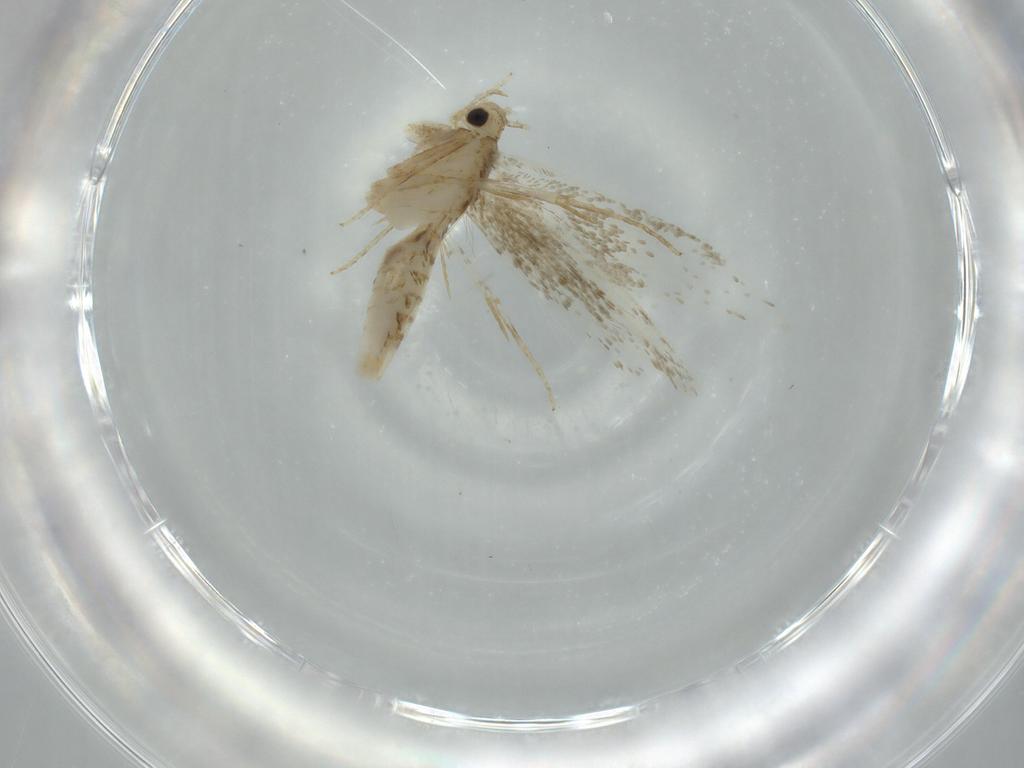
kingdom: Animalia
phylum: Arthropoda
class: Insecta
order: Lepidoptera
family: Tineidae
